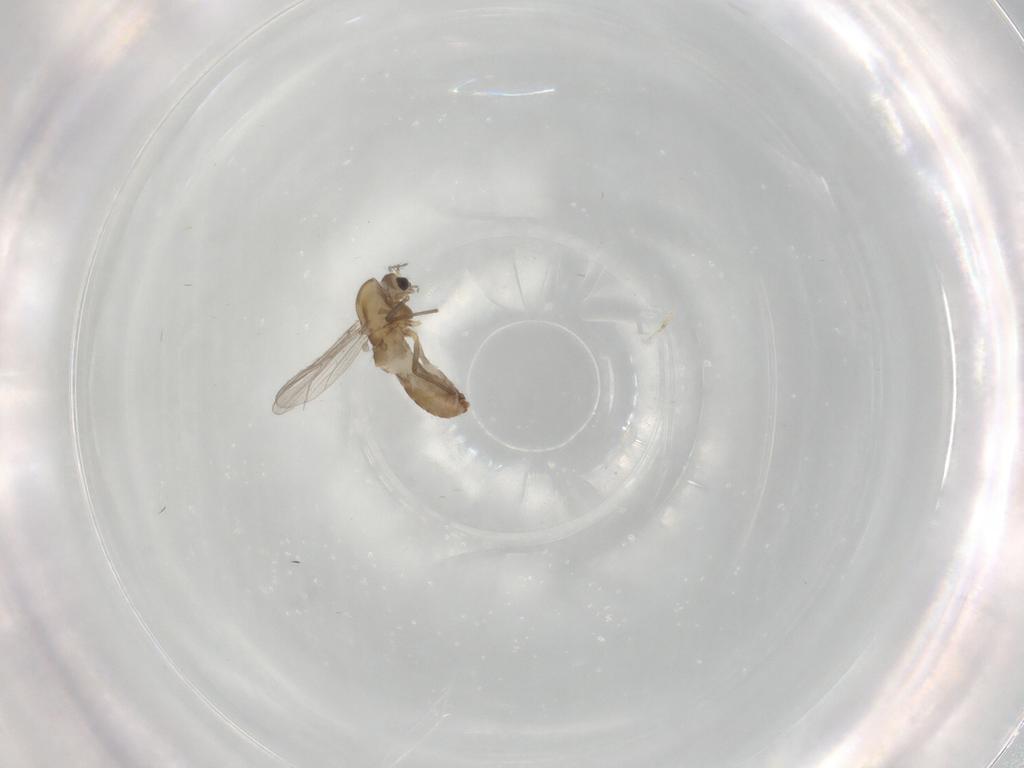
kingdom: Animalia
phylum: Arthropoda
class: Insecta
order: Diptera
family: Chironomidae
